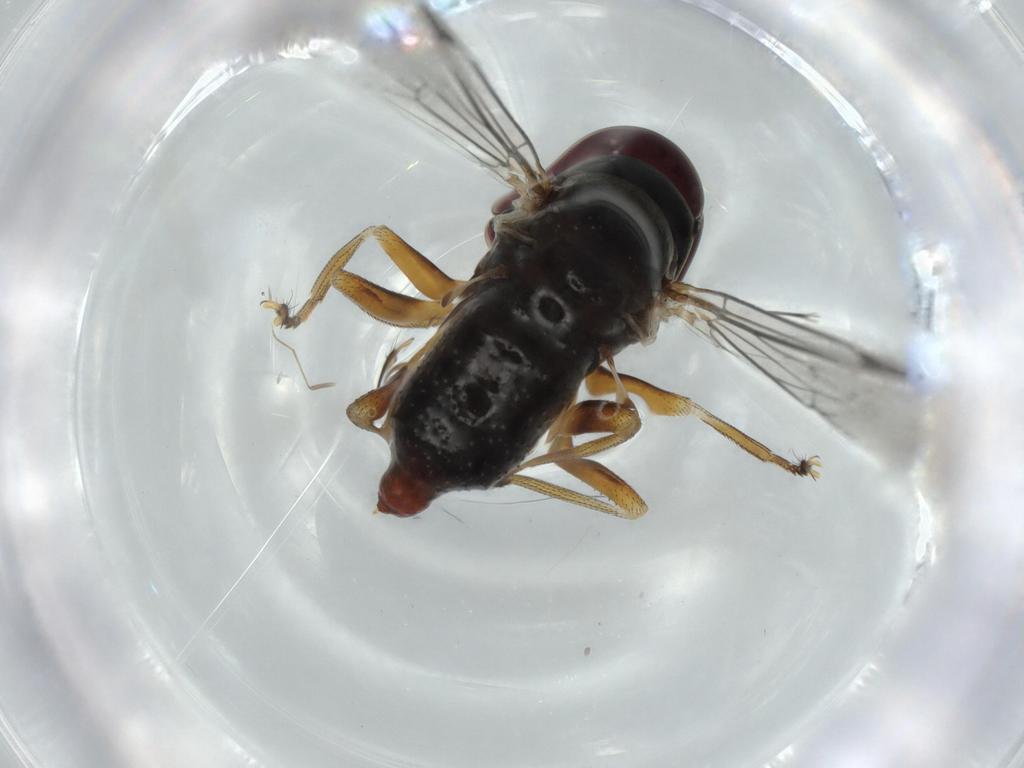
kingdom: Animalia
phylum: Arthropoda
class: Insecta
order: Diptera
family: Pipunculidae
